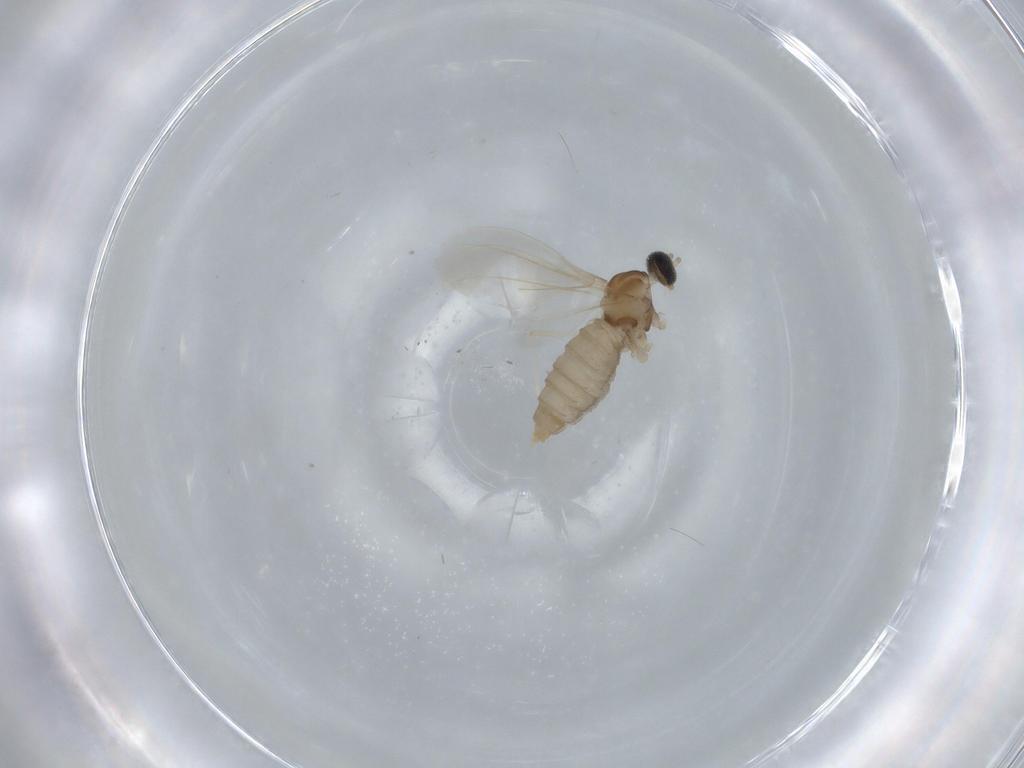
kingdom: Animalia
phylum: Arthropoda
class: Insecta
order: Diptera
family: Cecidomyiidae
